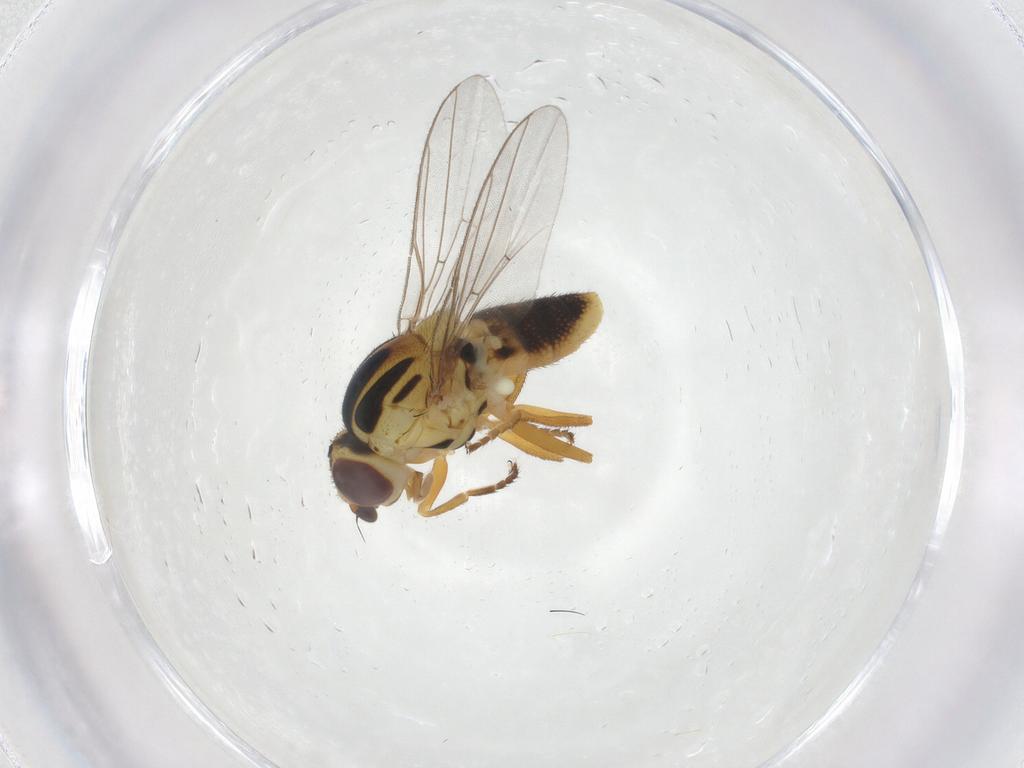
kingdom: Animalia
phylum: Arthropoda
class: Insecta
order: Diptera
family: Chloropidae
